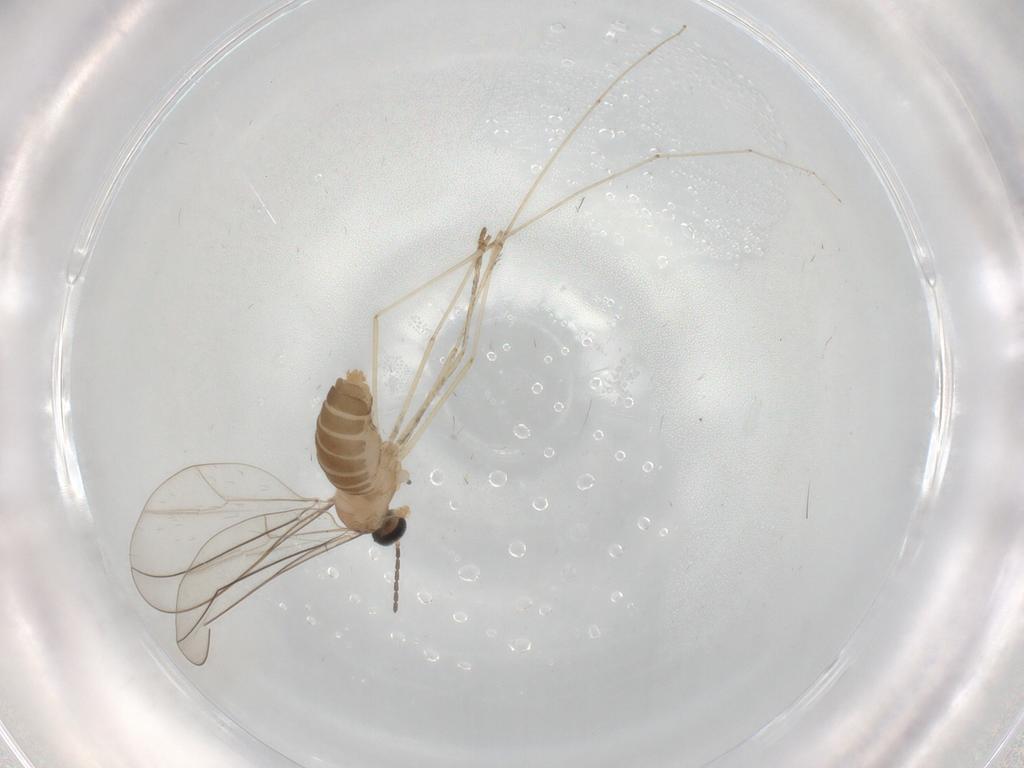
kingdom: Animalia
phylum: Arthropoda
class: Insecta
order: Diptera
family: Cecidomyiidae
